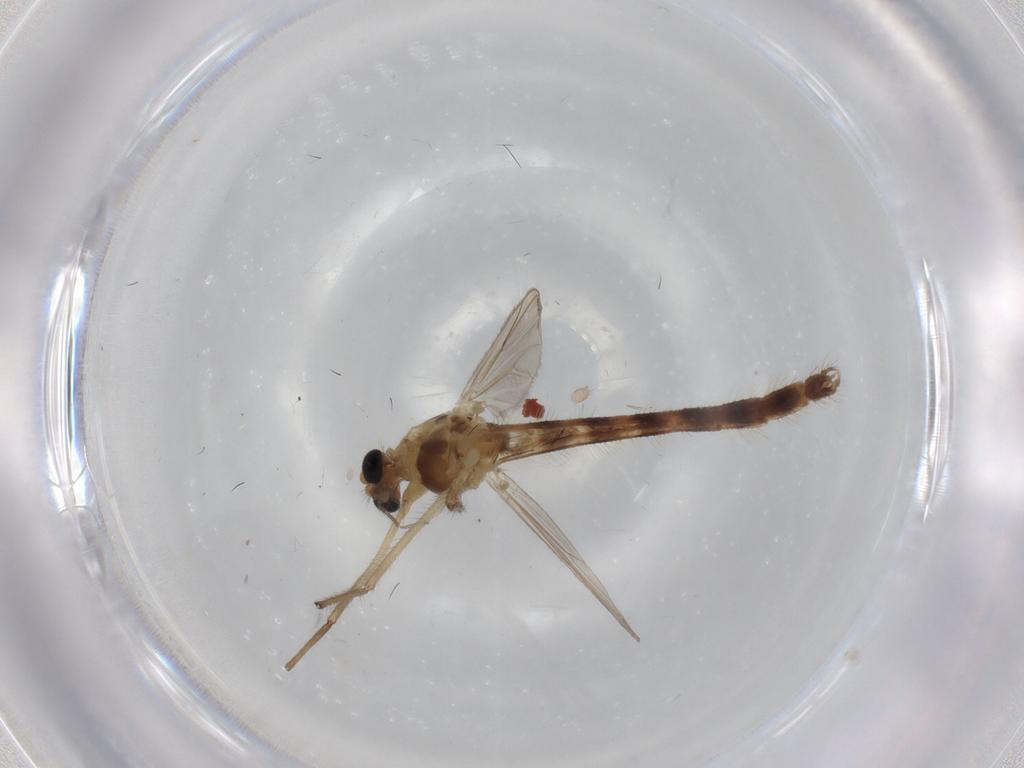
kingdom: Animalia
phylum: Arthropoda
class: Insecta
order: Diptera
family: Chironomidae
